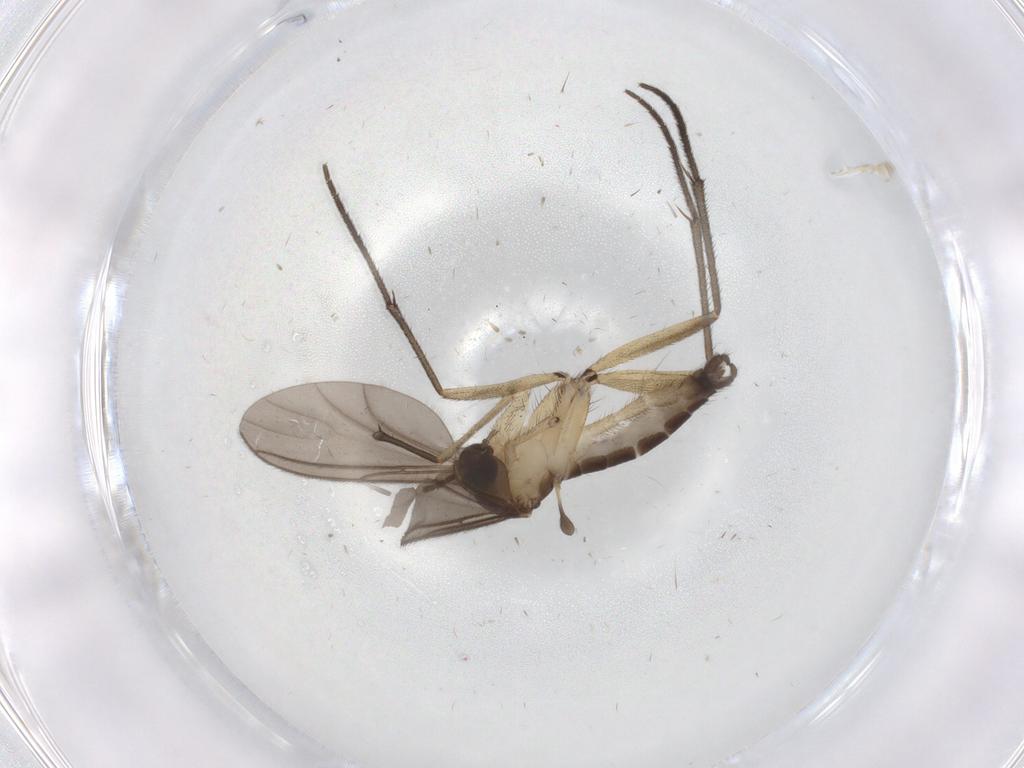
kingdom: Animalia
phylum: Arthropoda
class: Insecta
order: Diptera
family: Sciaridae
